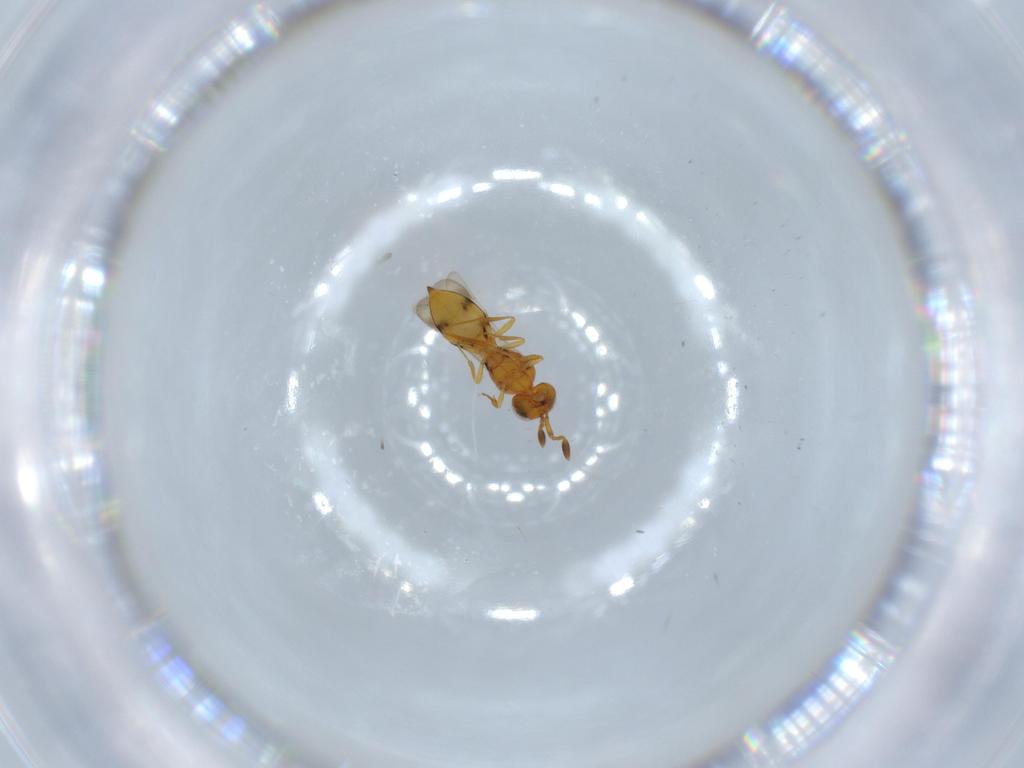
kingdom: Animalia
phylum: Arthropoda
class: Insecta
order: Hymenoptera
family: Scelionidae
